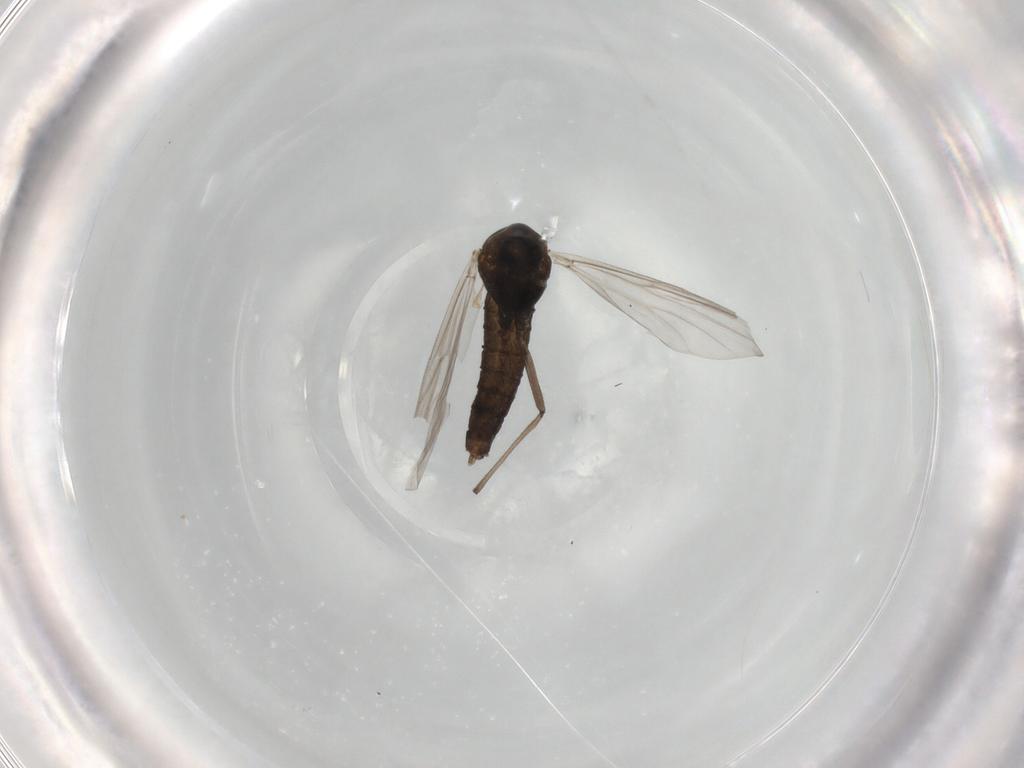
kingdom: Animalia
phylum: Arthropoda
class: Insecta
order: Diptera
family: Chironomidae
